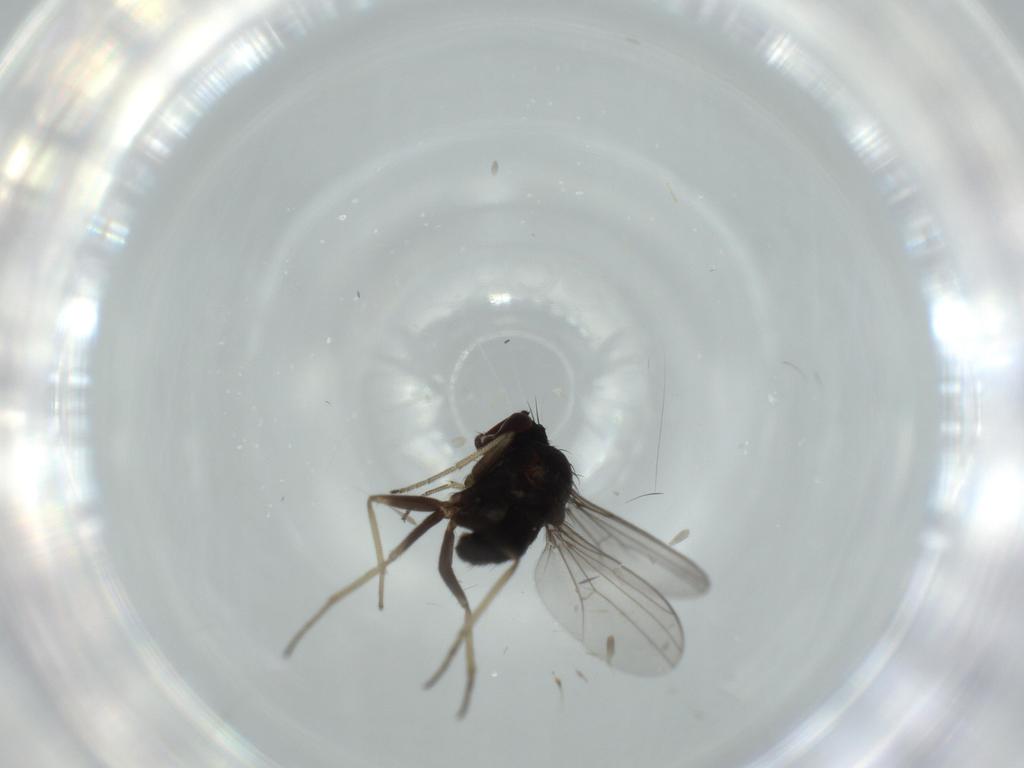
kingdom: Animalia
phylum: Arthropoda
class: Insecta
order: Diptera
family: Dolichopodidae
